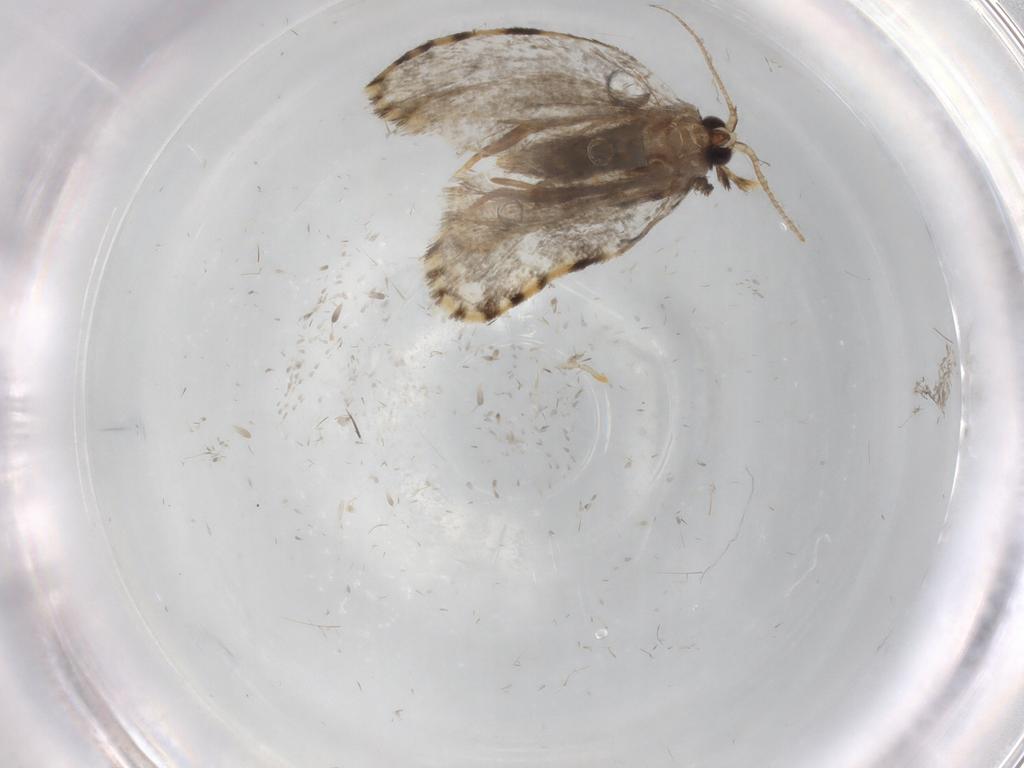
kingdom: Animalia
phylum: Arthropoda
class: Insecta
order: Lepidoptera
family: Psychidae
